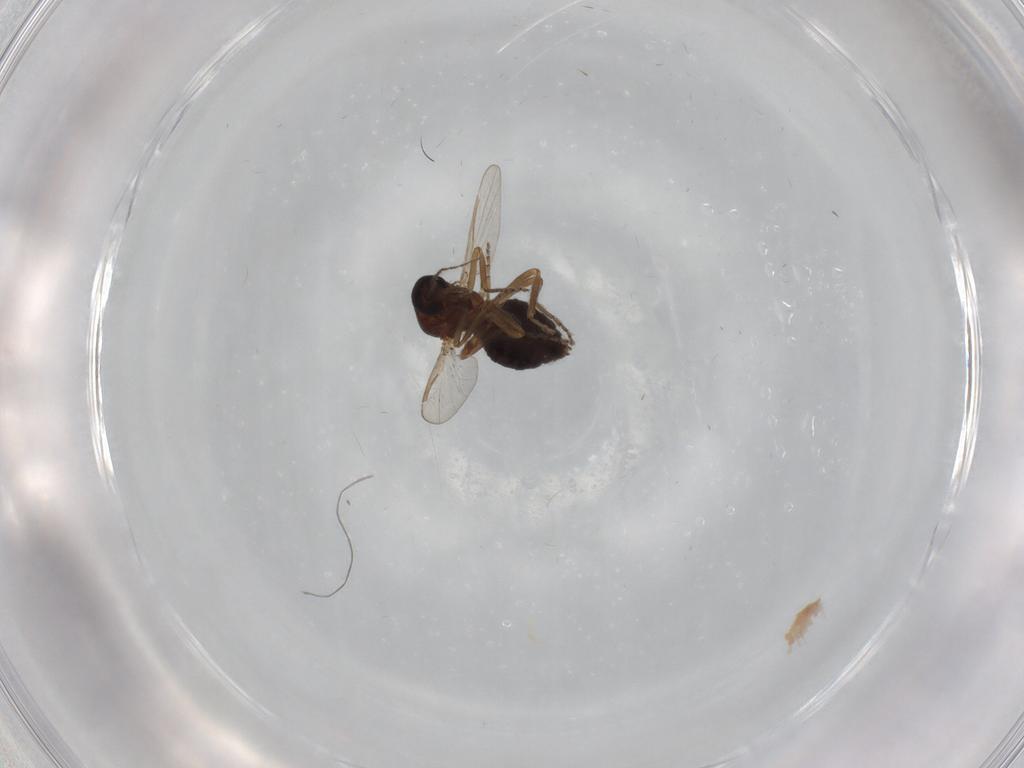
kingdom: Animalia
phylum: Arthropoda
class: Insecta
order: Diptera
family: Ceratopogonidae
